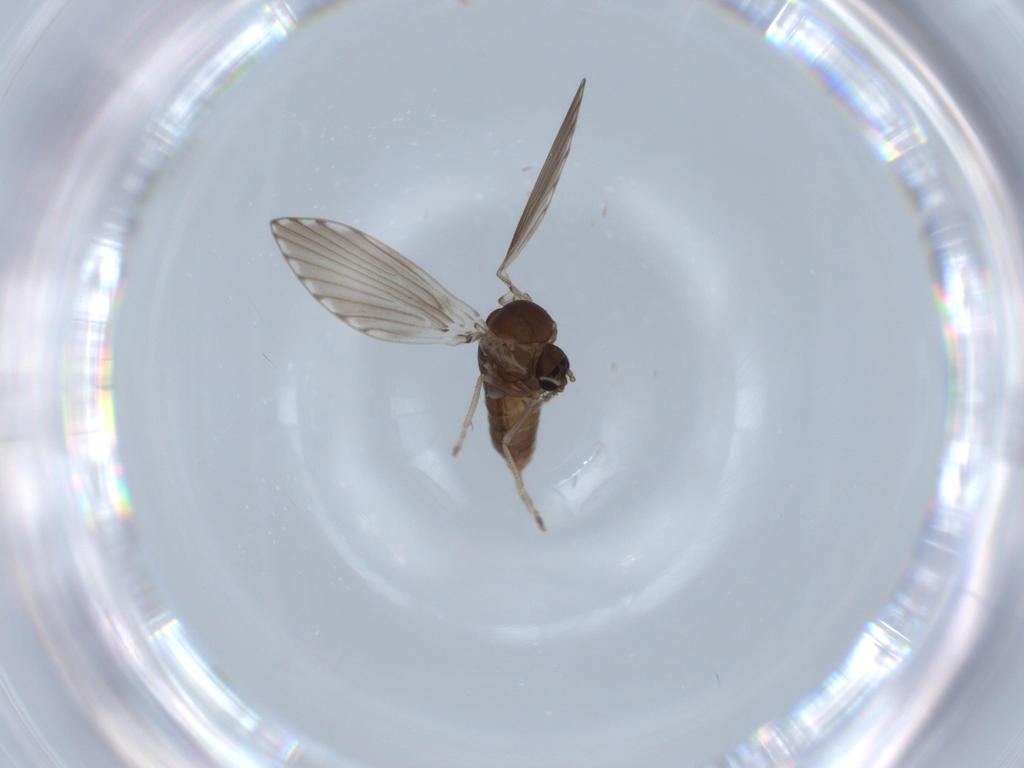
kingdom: Animalia
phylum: Arthropoda
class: Insecta
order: Diptera
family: Psychodidae
